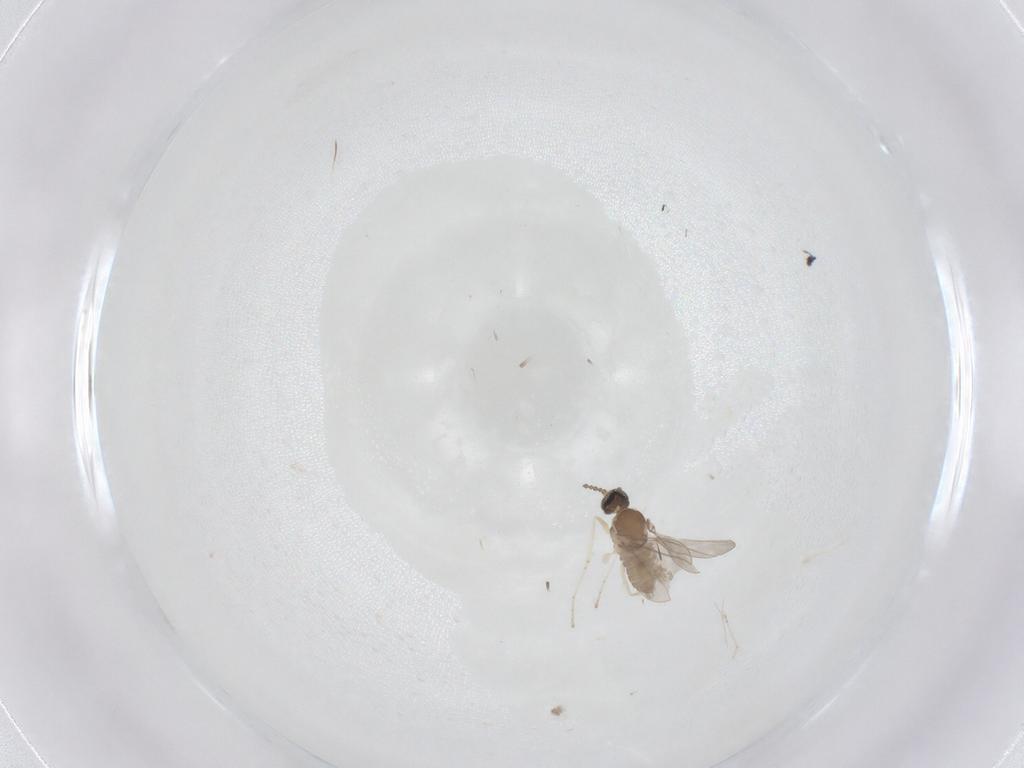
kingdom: Animalia
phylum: Arthropoda
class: Insecta
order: Diptera
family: Cecidomyiidae
